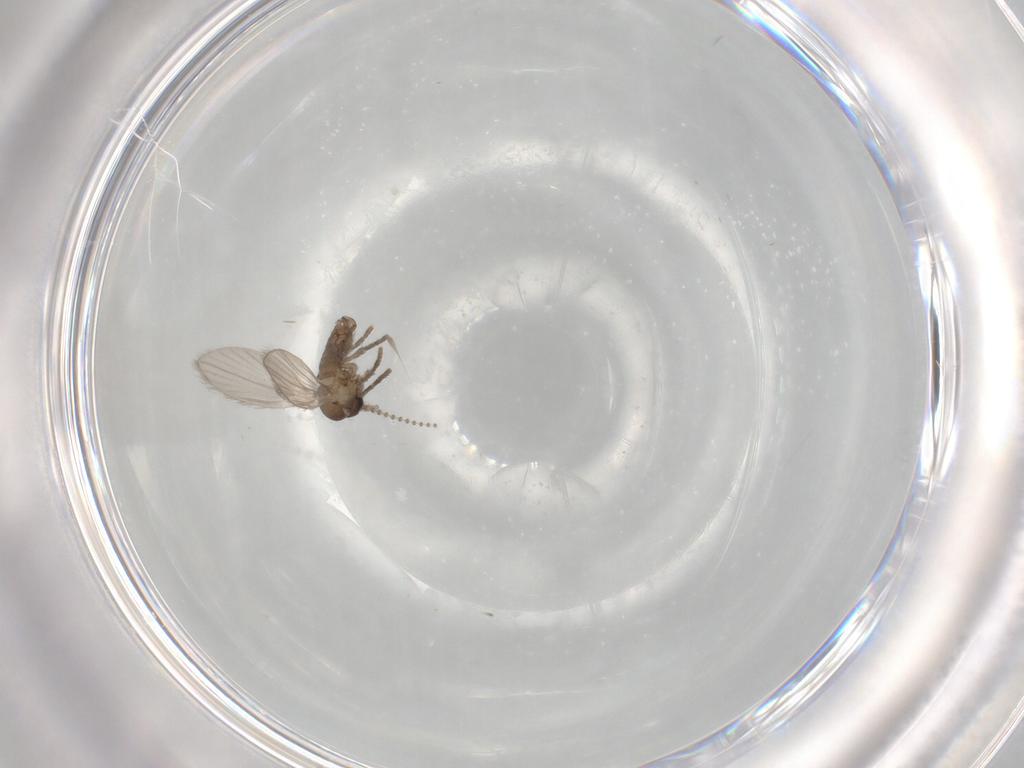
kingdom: Animalia
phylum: Arthropoda
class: Insecta
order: Diptera
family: Psychodidae
